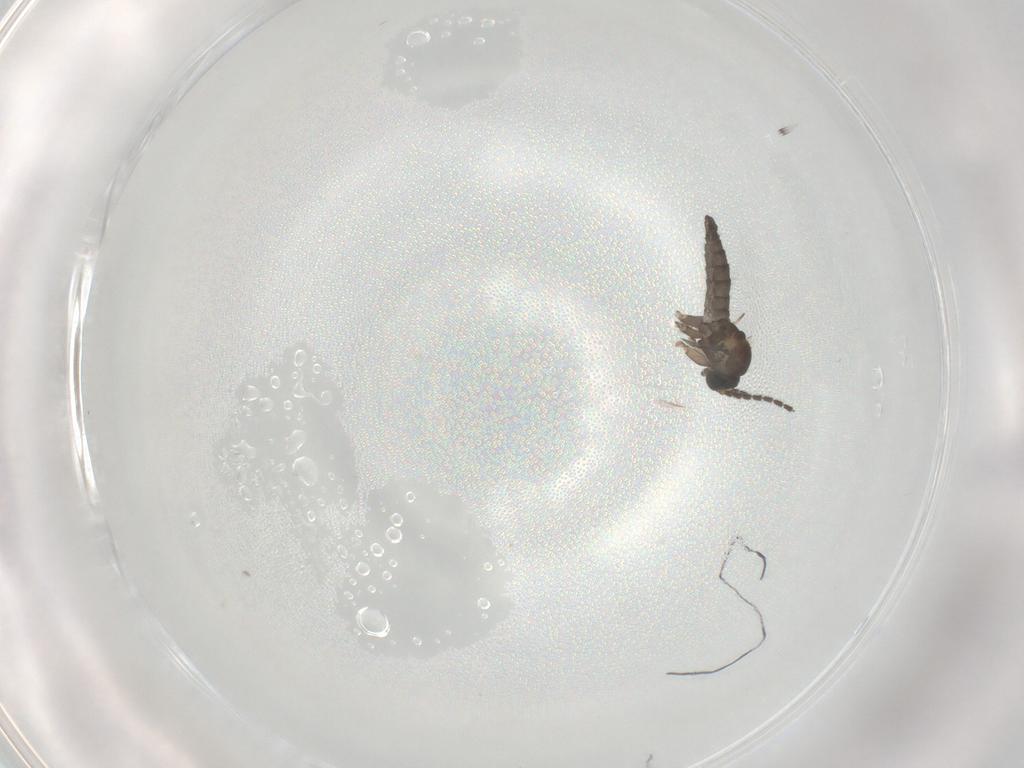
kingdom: Animalia
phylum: Arthropoda
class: Insecta
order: Diptera
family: Sciaridae
